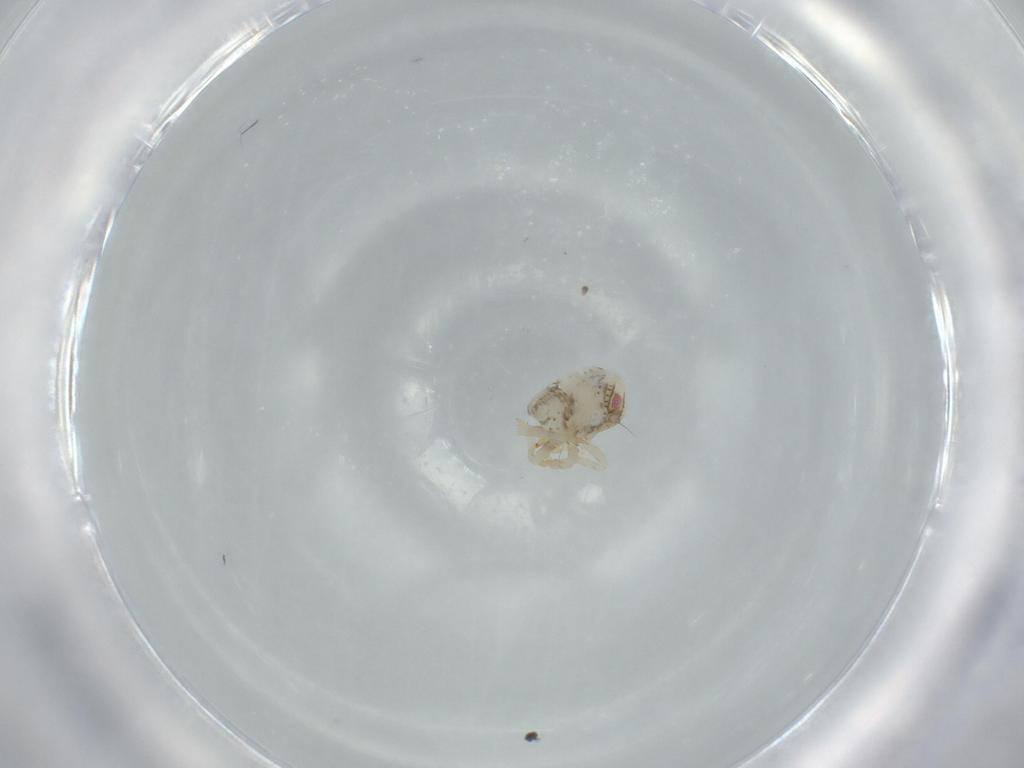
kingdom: Animalia
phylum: Arthropoda
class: Insecta
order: Hemiptera
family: Acanaloniidae
